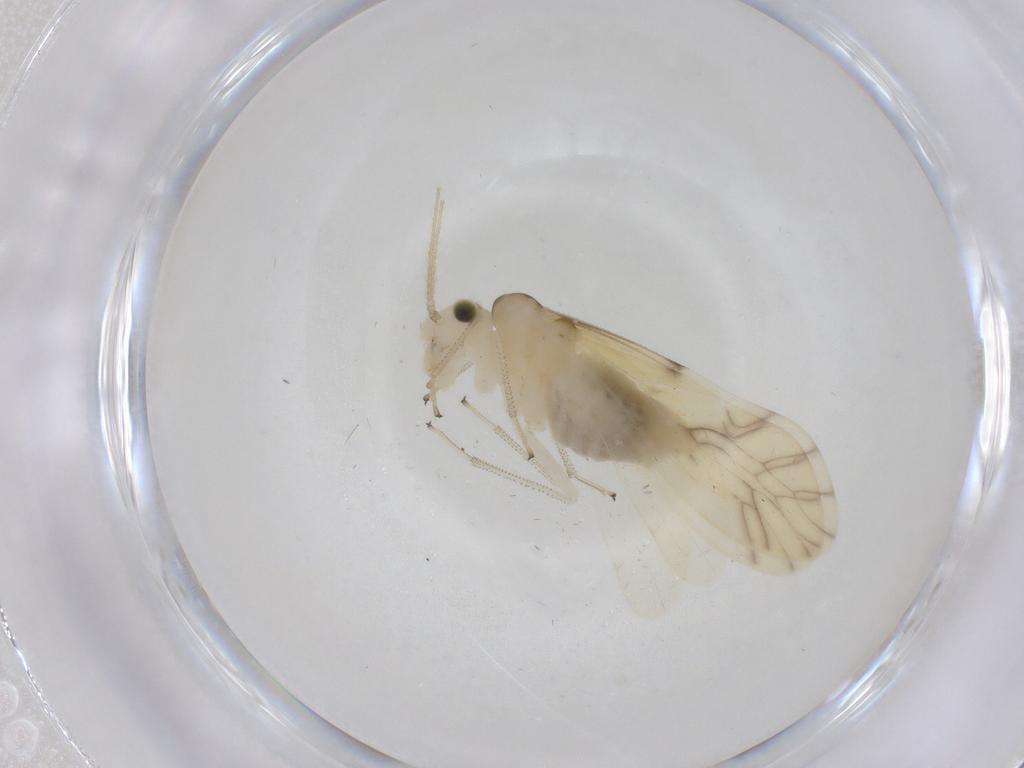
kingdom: Animalia
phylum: Arthropoda
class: Insecta
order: Psocodea
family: Caeciliusidae
